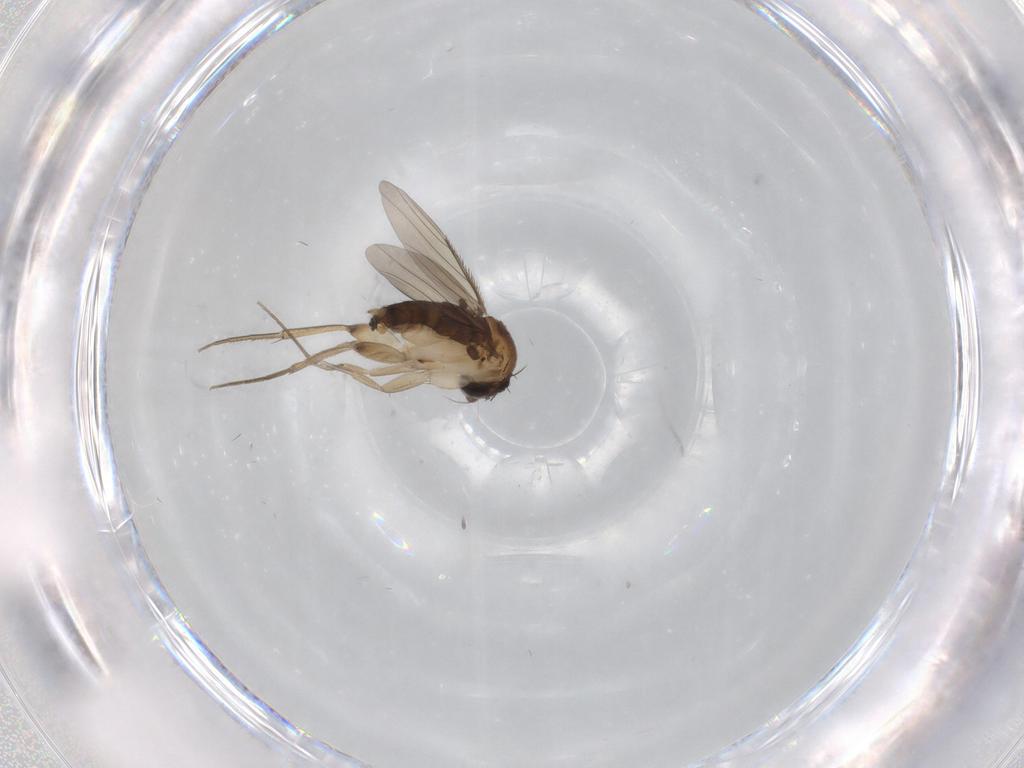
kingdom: Animalia
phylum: Arthropoda
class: Insecta
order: Diptera
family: Phoridae
